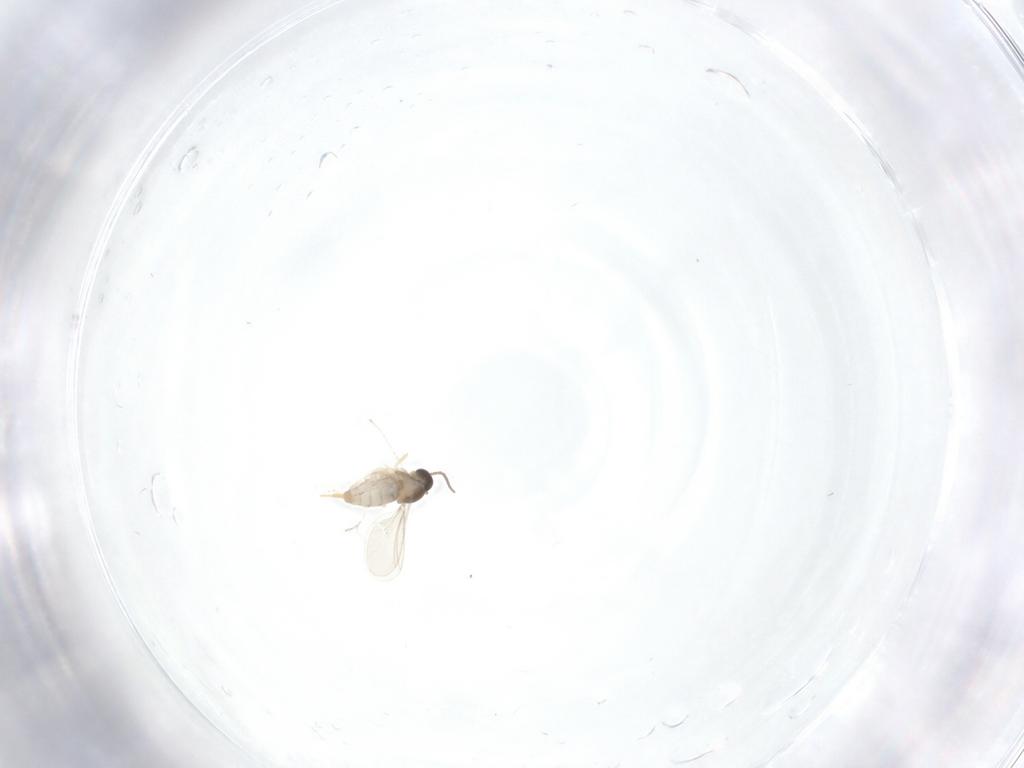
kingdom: Animalia
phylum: Arthropoda
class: Insecta
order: Diptera
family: Cecidomyiidae
